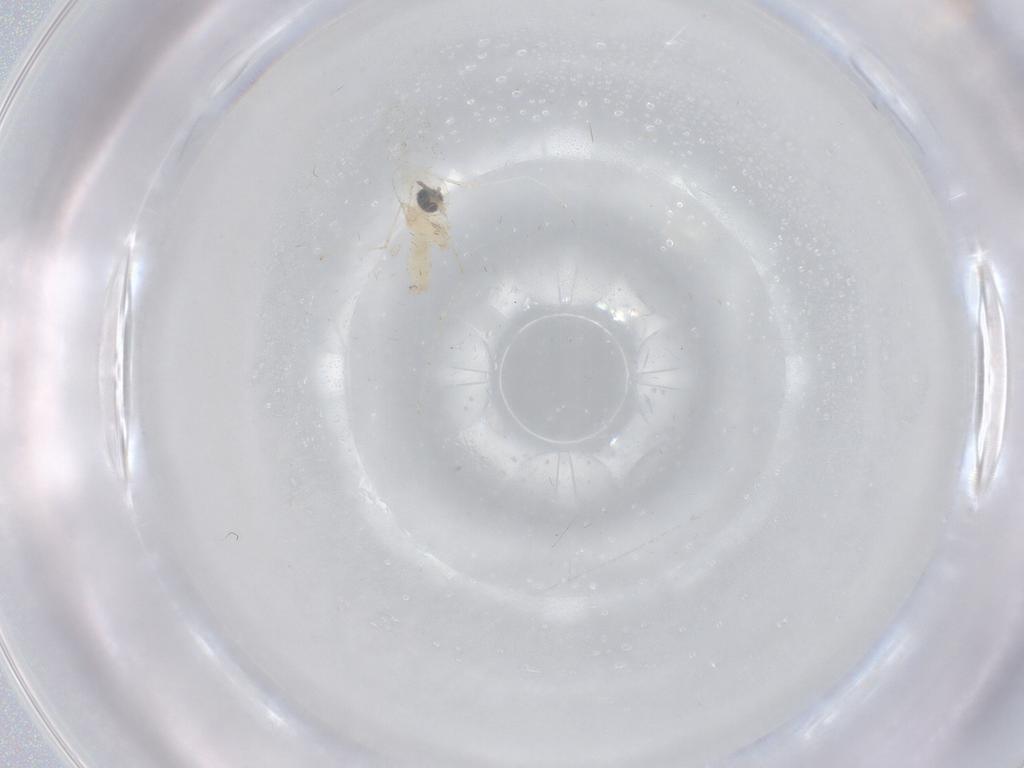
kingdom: Animalia
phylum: Arthropoda
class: Insecta
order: Diptera
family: Cecidomyiidae
